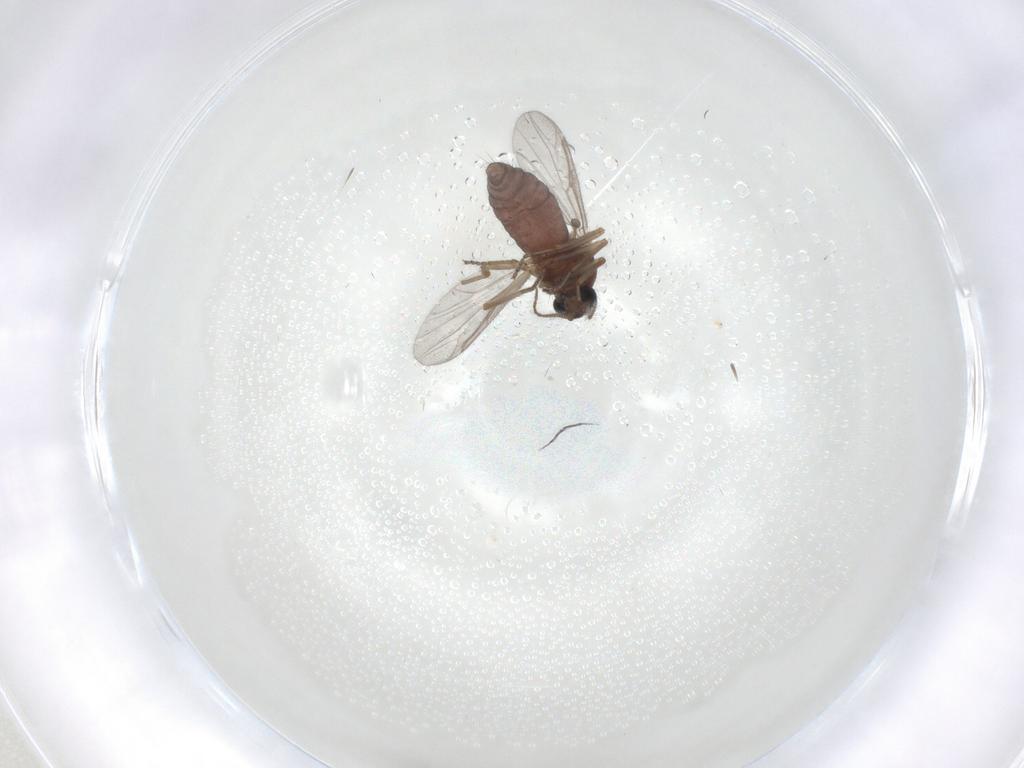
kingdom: Animalia
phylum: Arthropoda
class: Insecta
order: Diptera
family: Ceratopogonidae
